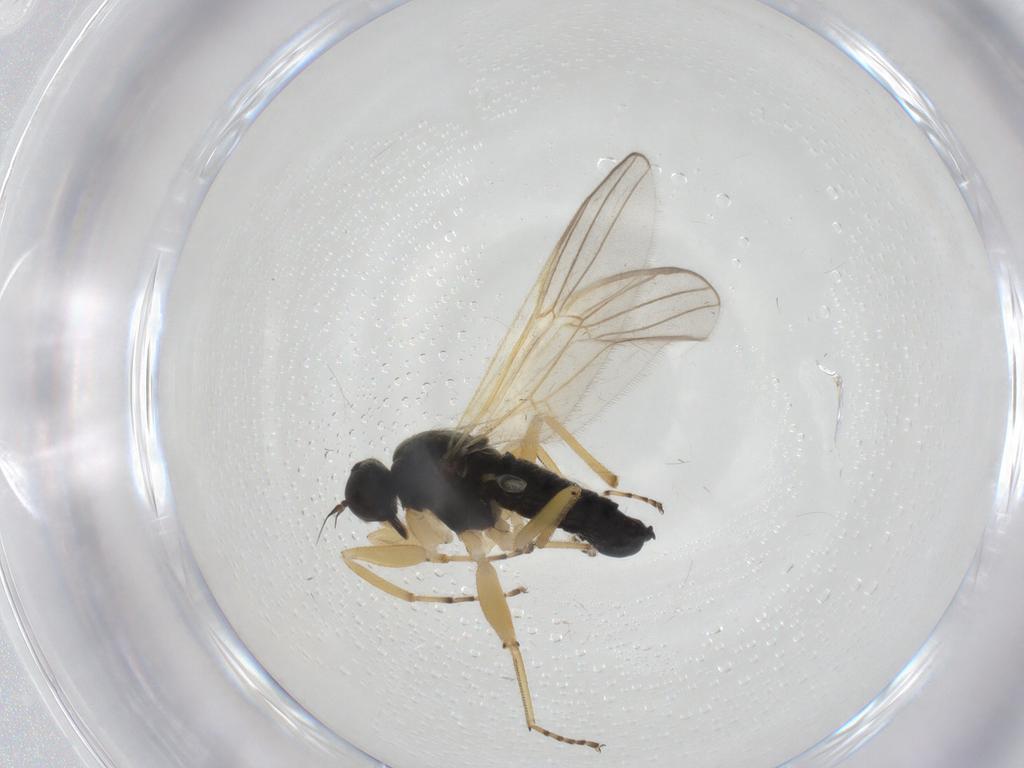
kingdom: Animalia
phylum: Arthropoda
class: Insecta
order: Diptera
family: Hybotidae
